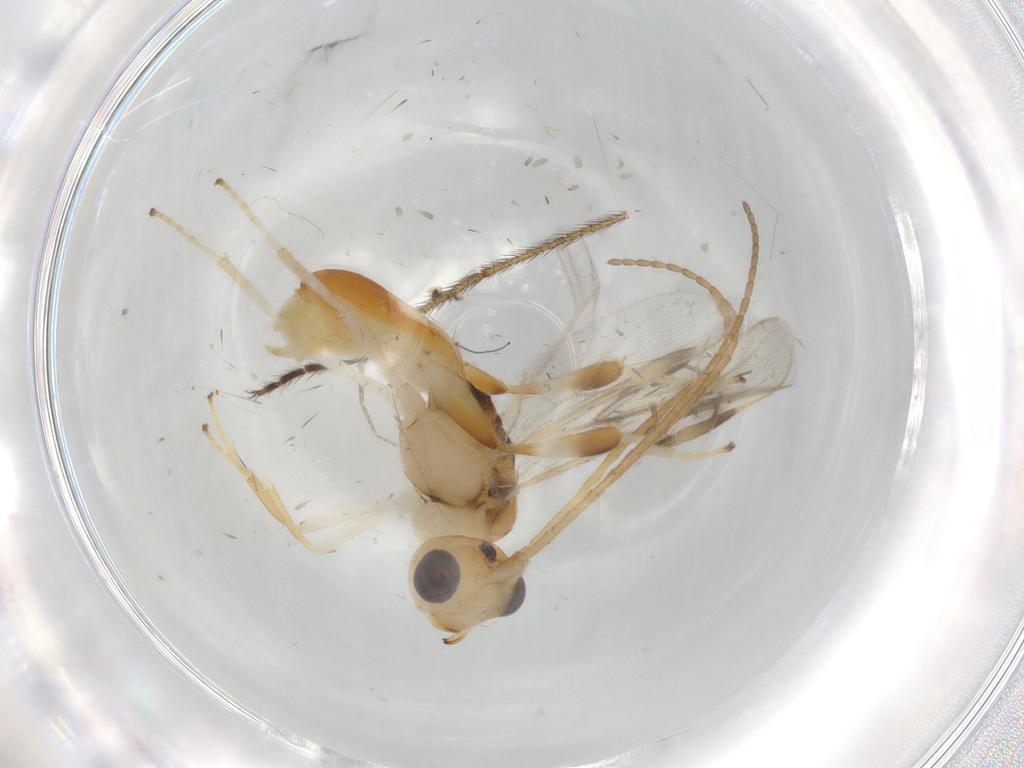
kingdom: Animalia
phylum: Arthropoda
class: Insecta
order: Hymenoptera
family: Braconidae
